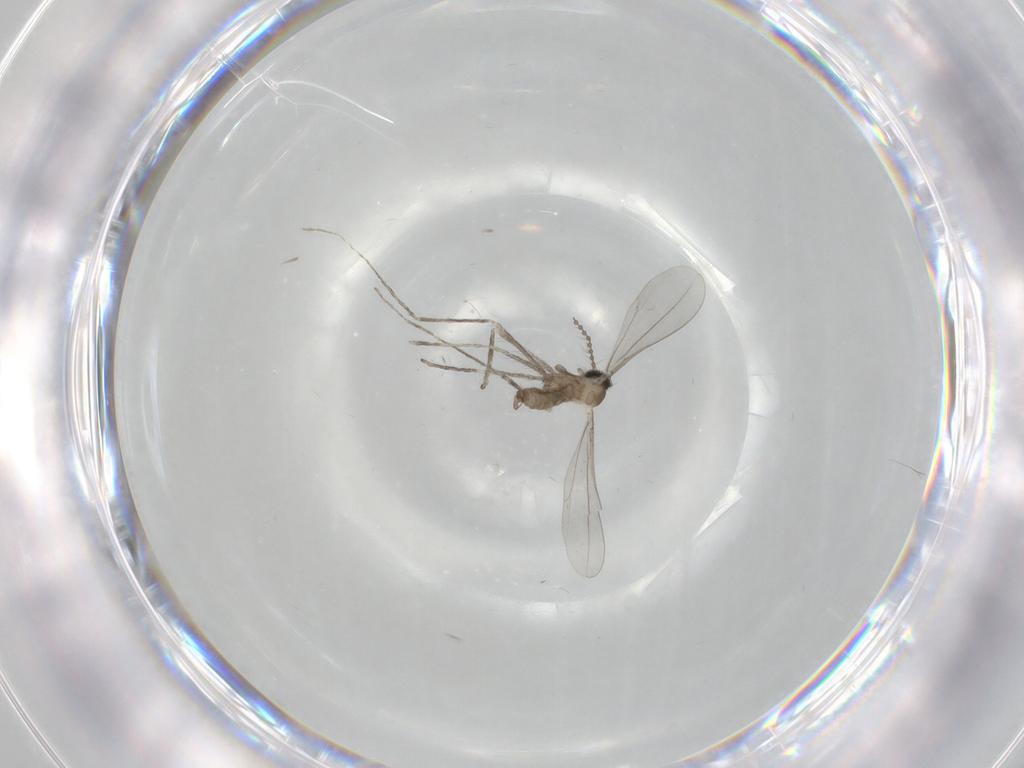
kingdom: Animalia
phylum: Arthropoda
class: Insecta
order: Diptera
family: Cecidomyiidae
